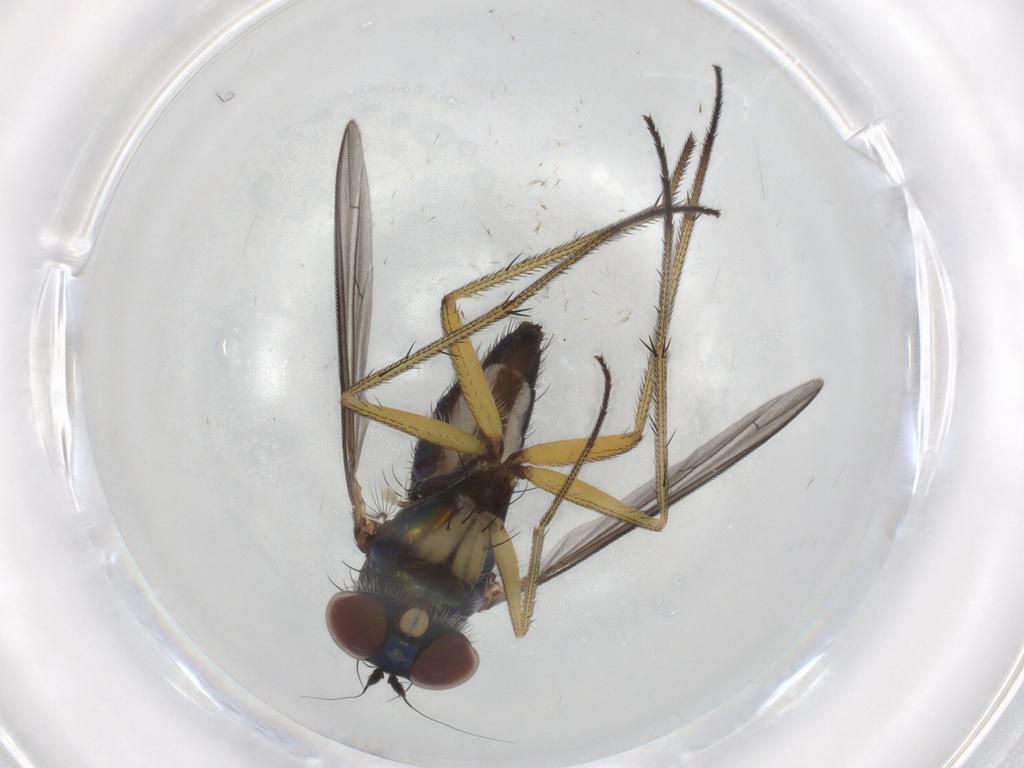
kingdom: Animalia
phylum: Arthropoda
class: Insecta
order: Diptera
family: Dolichopodidae
